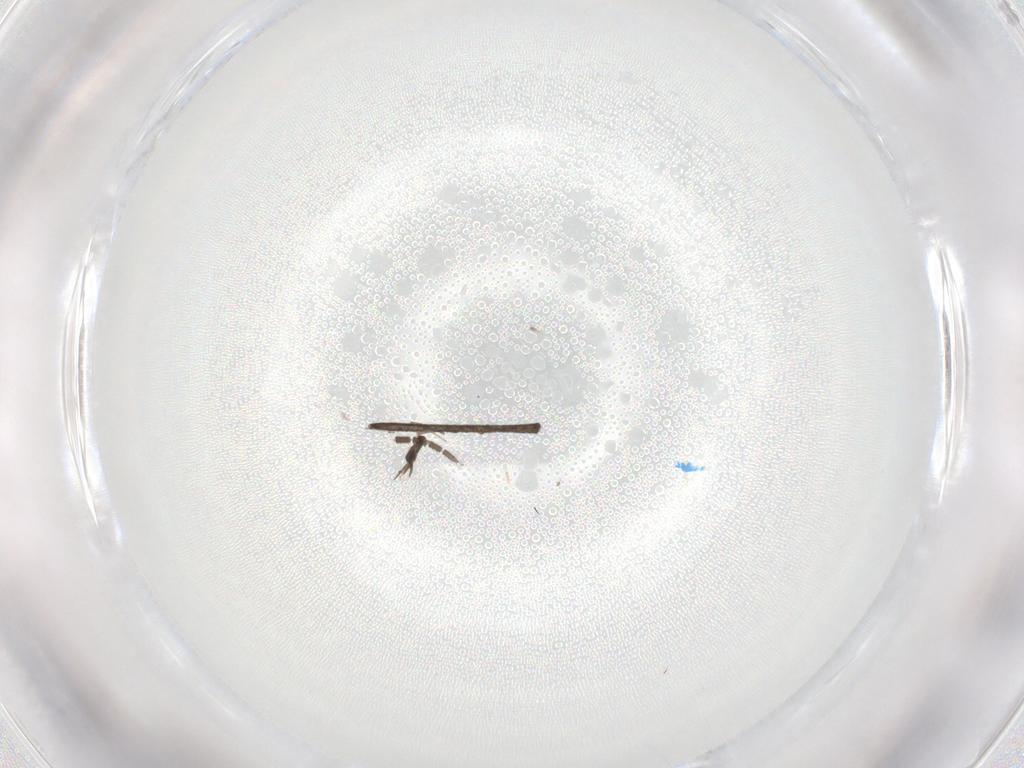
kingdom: Animalia
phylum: Arthropoda
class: Insecta
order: Diptera
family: Sciaridae
